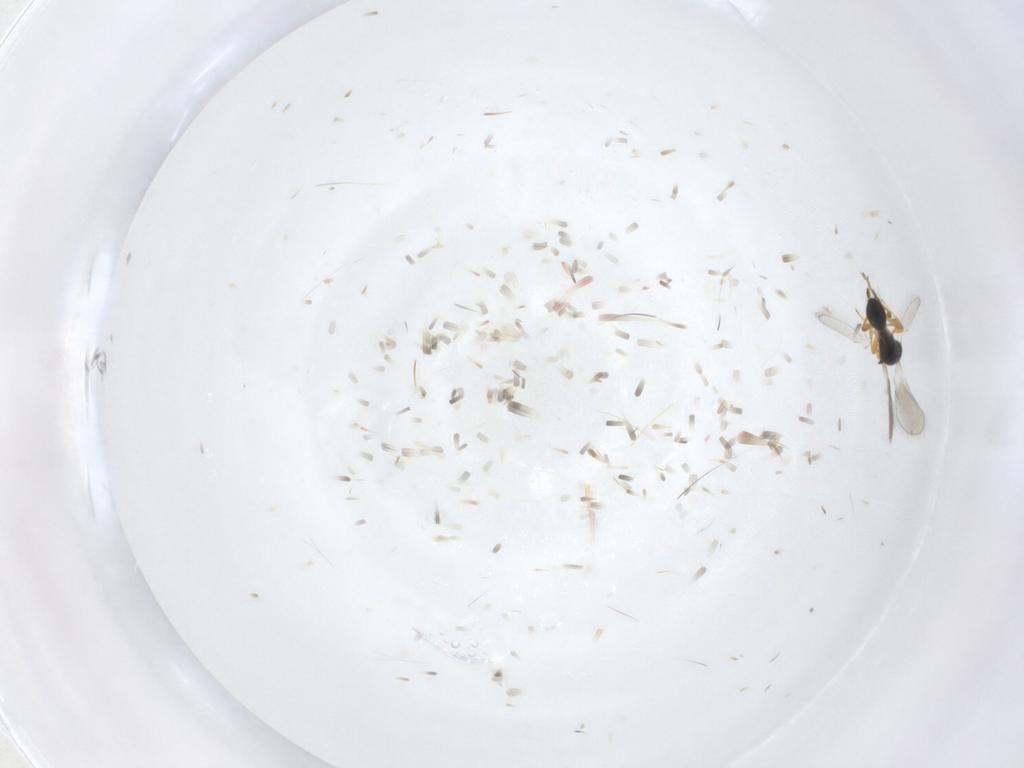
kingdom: Animalia
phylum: Arthropoda
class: Insecta
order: Hymenoptera
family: Platygastridae
